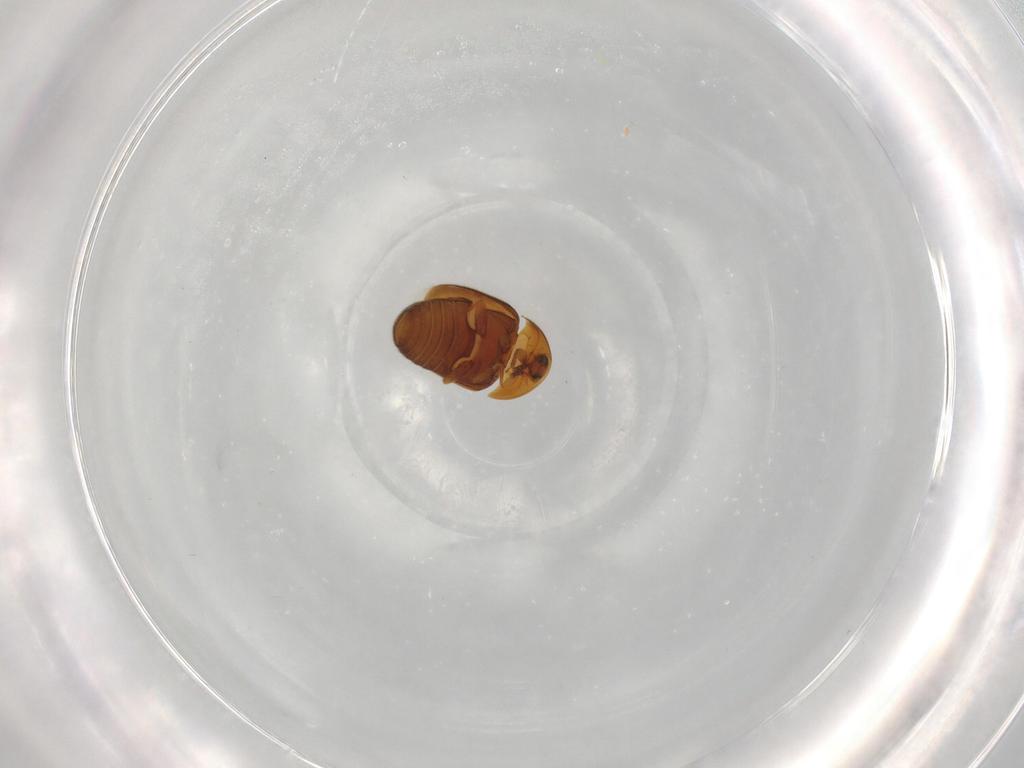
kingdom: Animalia
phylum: Arthropoda
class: Insecta
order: Coleoptera
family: Corylophidae
